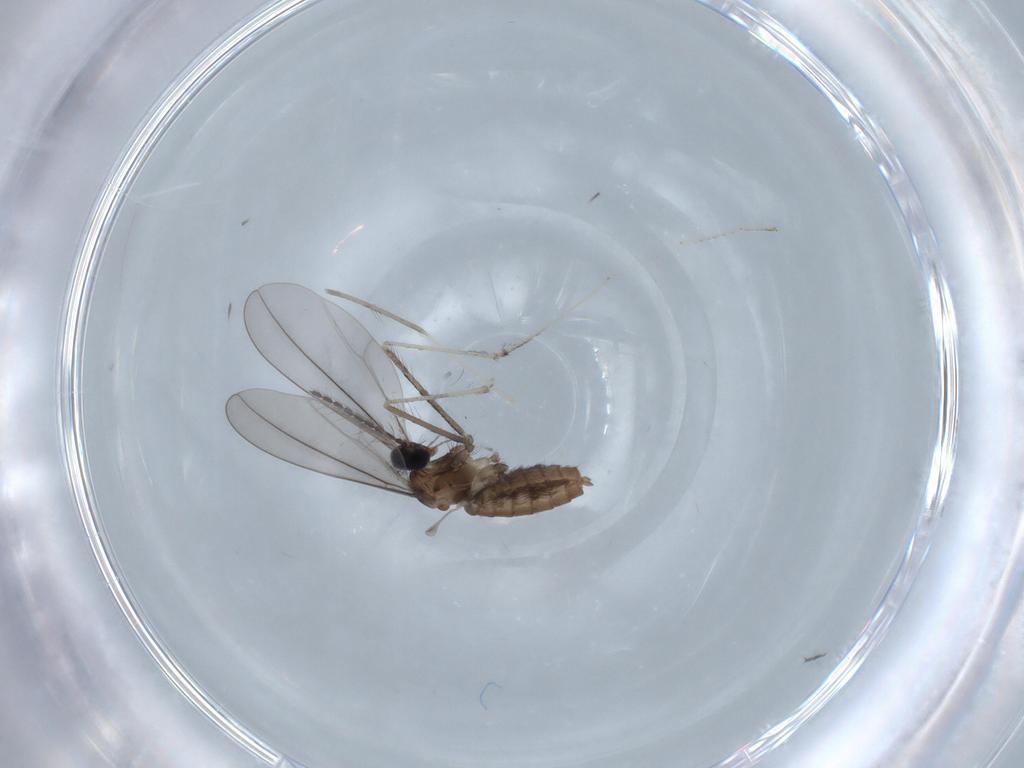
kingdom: Animalia
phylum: Arthropoda
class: Insecta
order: Diptera
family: Cecidomyiidae
